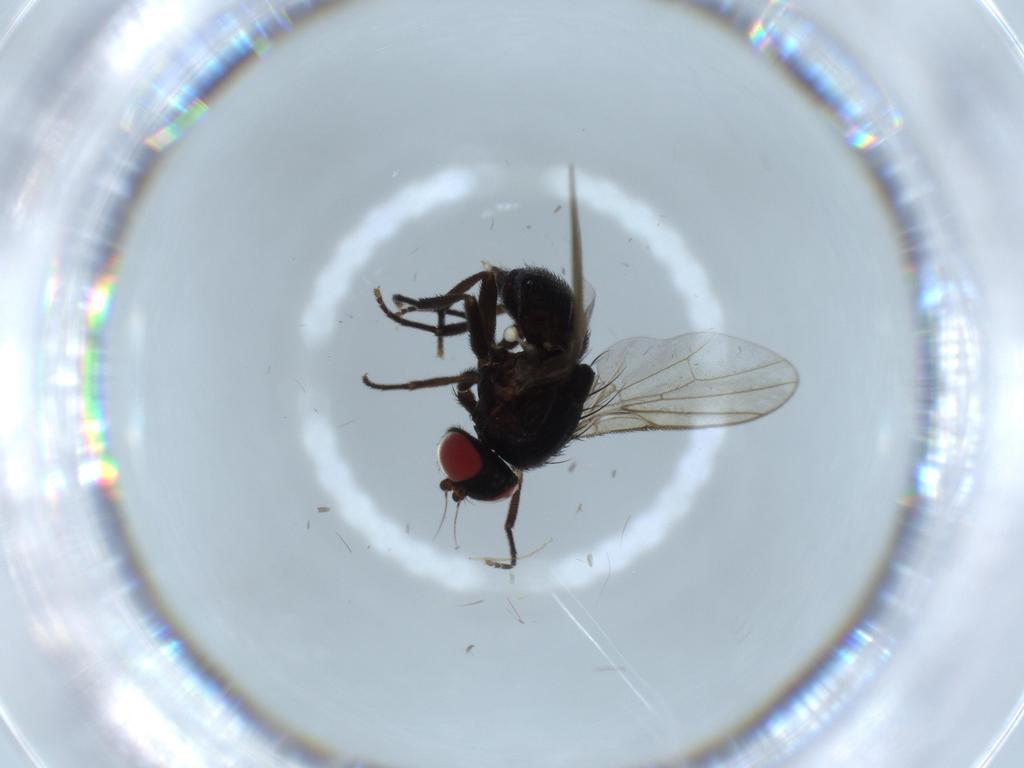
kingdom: Animalia
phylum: Arthropoda
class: Insecta
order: Diptera
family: Agromyzidae
